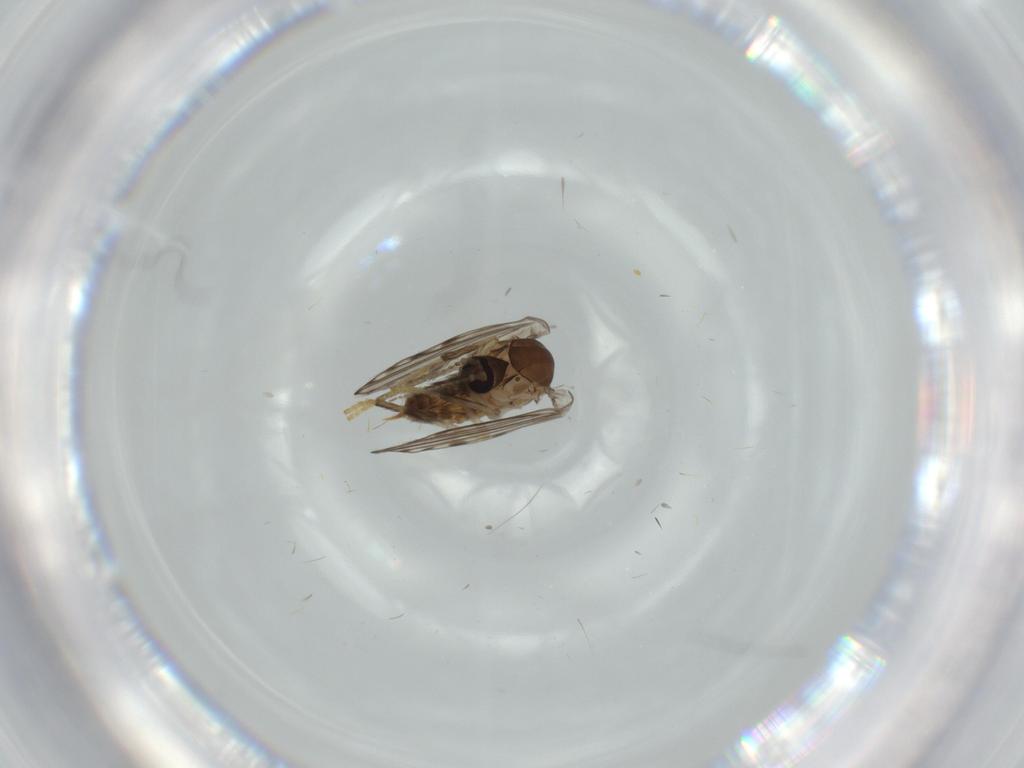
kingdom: Animalia
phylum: Arthropoda
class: Insecta
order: Diptera
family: Psychodidae
